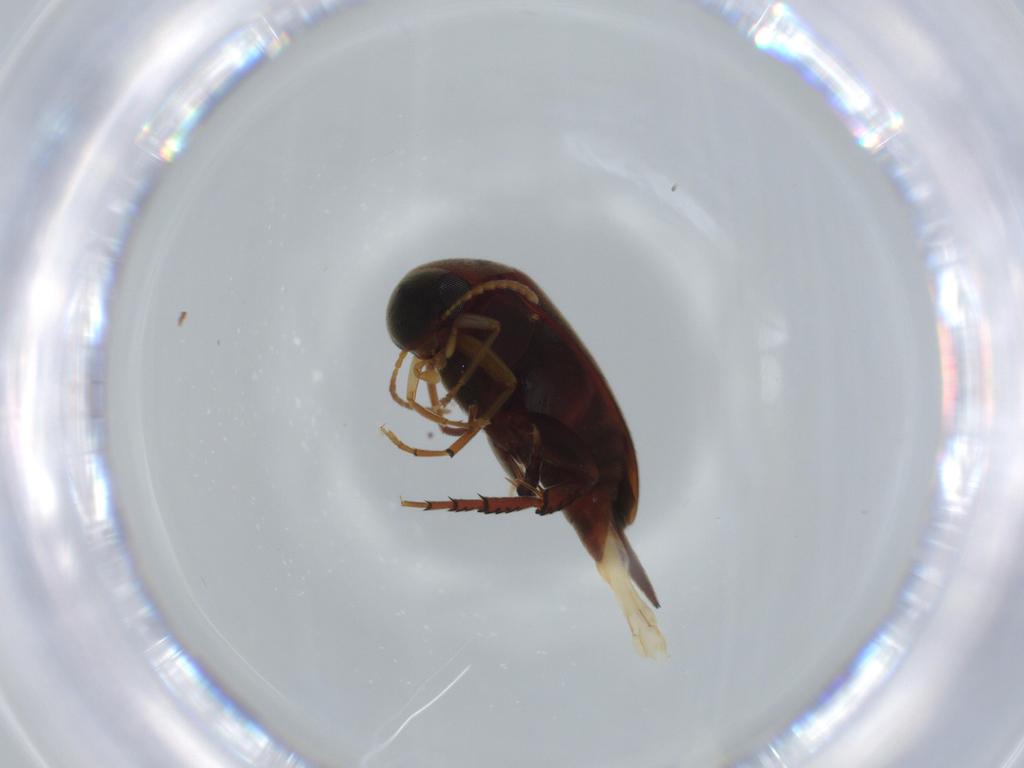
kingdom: Animalia
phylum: Arthropoda
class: Insecta
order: Coleoptera
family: Mordellidae
